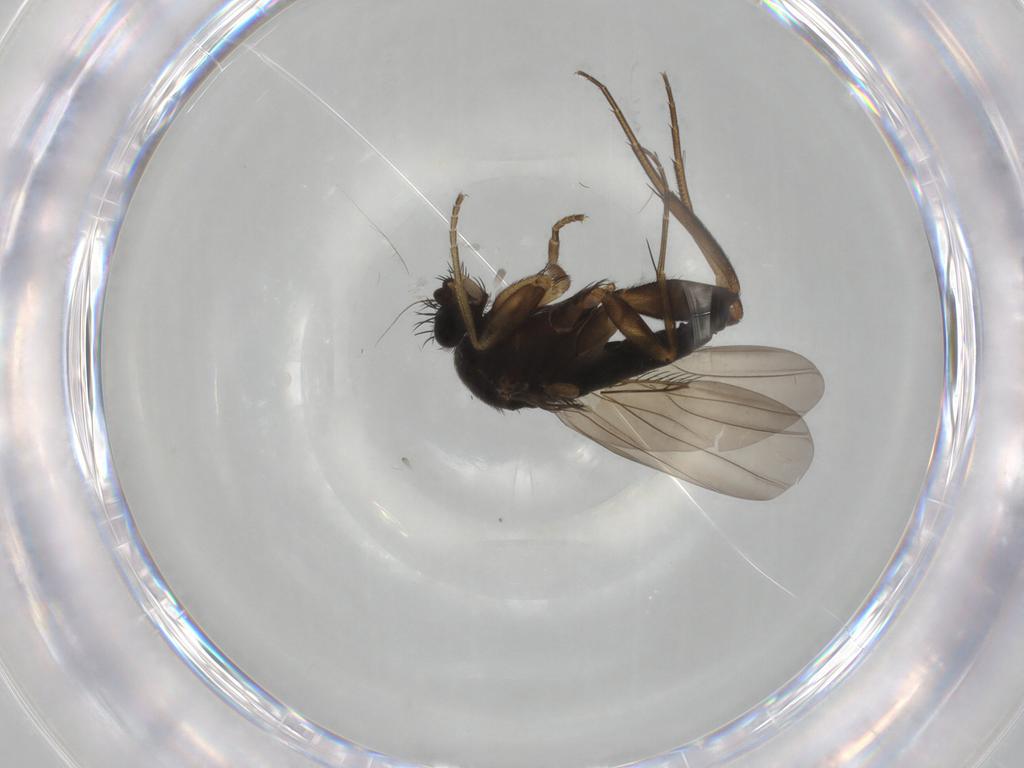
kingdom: Animalia
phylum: Arthropoda
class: Insecta
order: Diptera
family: Phoridae
